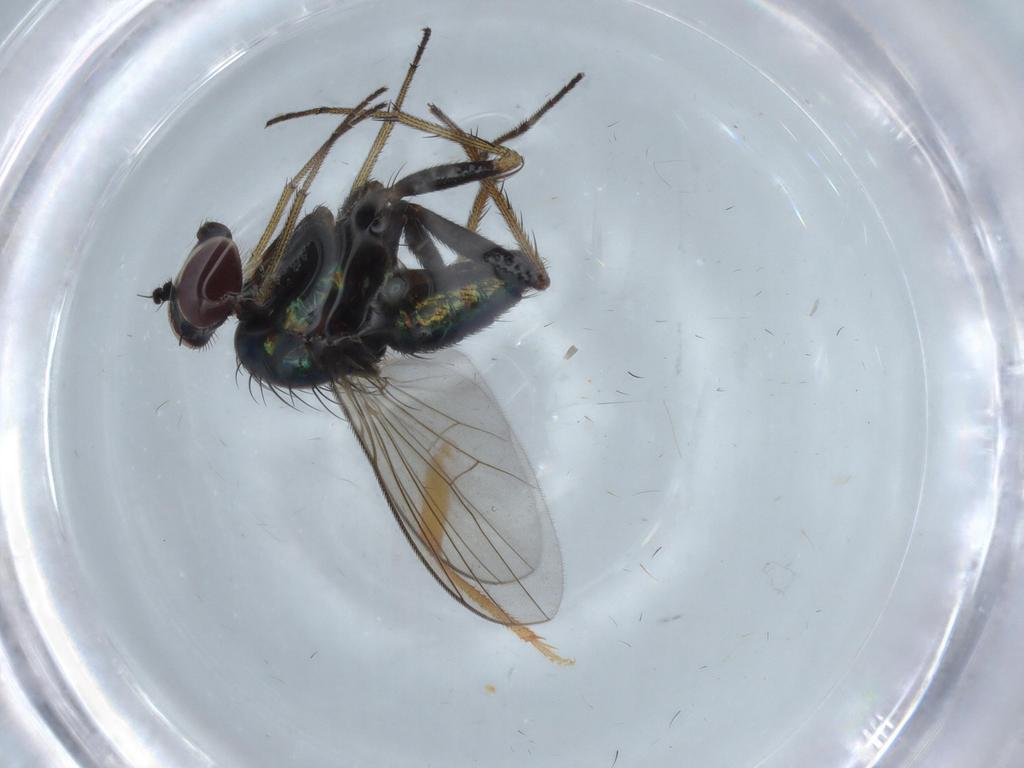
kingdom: Animalia
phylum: Arthropoda
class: Insecta
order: Diptera
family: Dolichopodidae
